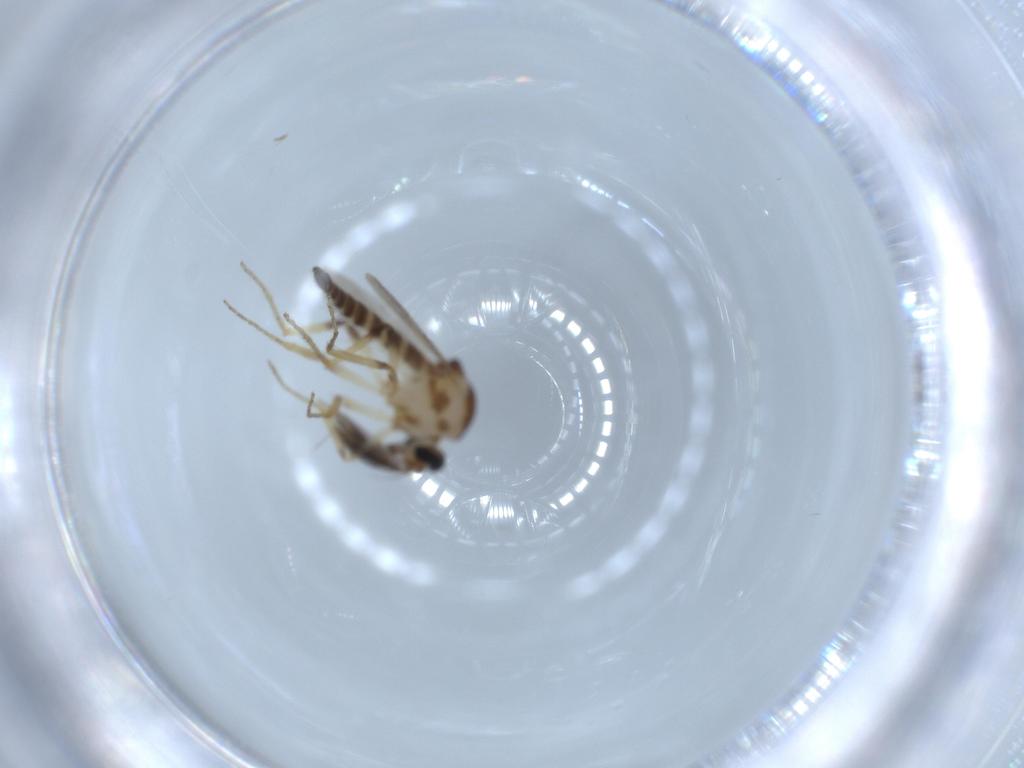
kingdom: Animalia
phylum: Arthropoda
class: Insecta
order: Diptera
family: Ceratopogonidae
